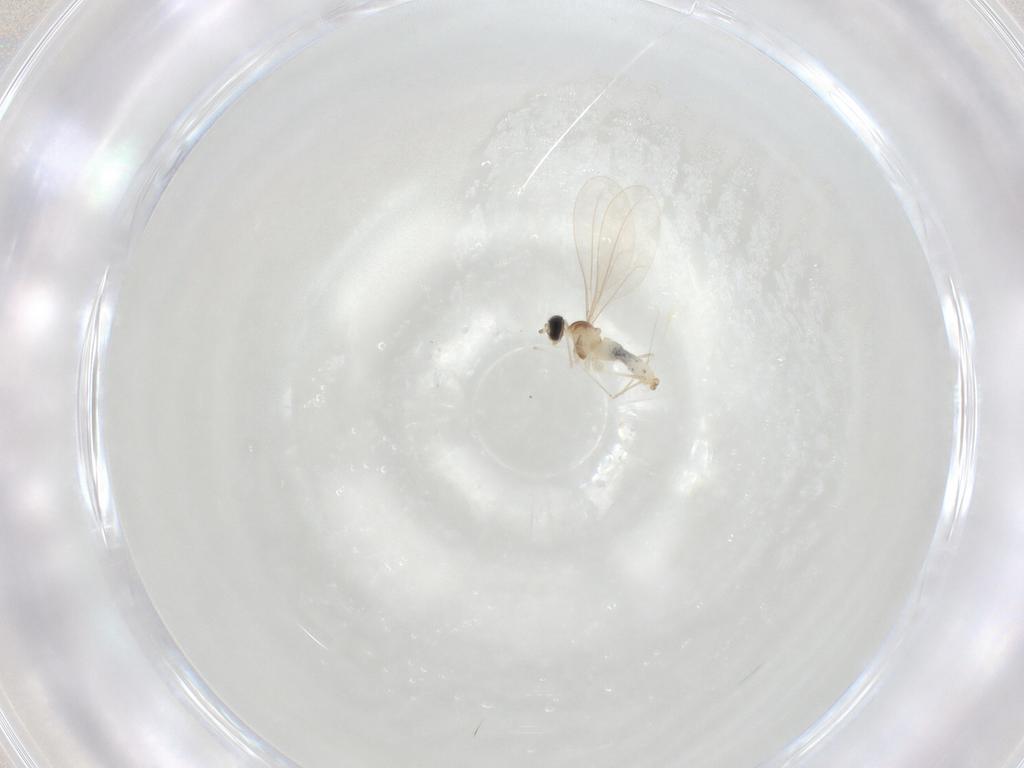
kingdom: Animalia
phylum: Arthropoda
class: Insecta
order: Diptera
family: Cecidomyiidae
